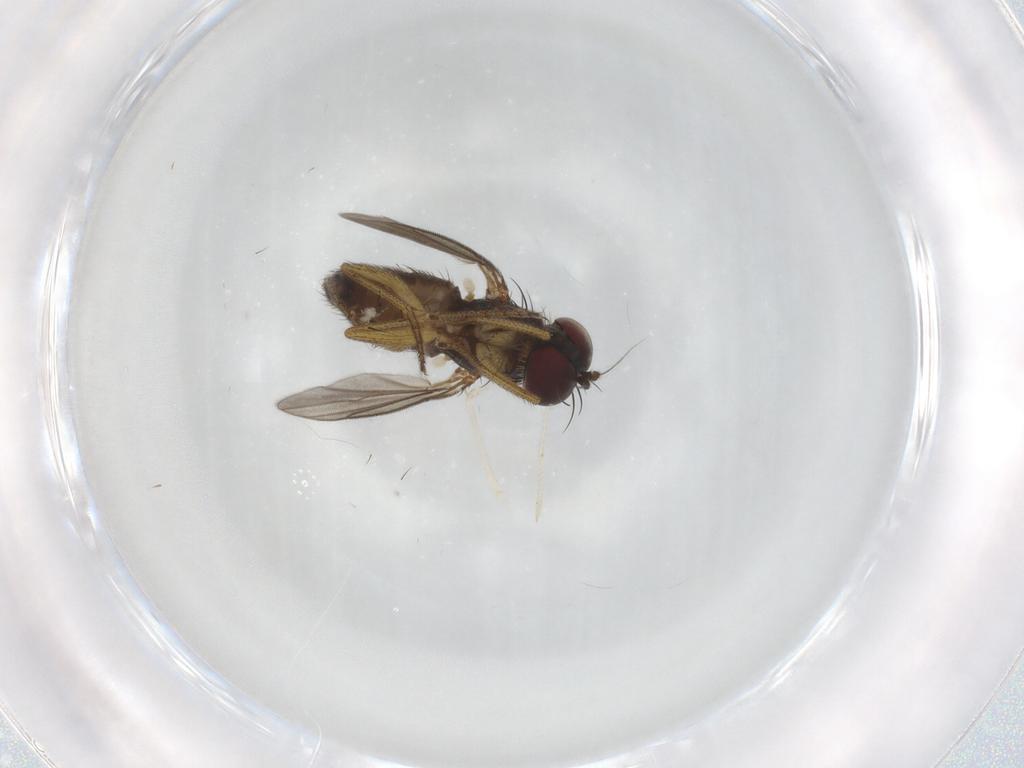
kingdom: Animalia
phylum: Arthropoda
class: Insecta
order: Diptera
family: Dolichopodidae
